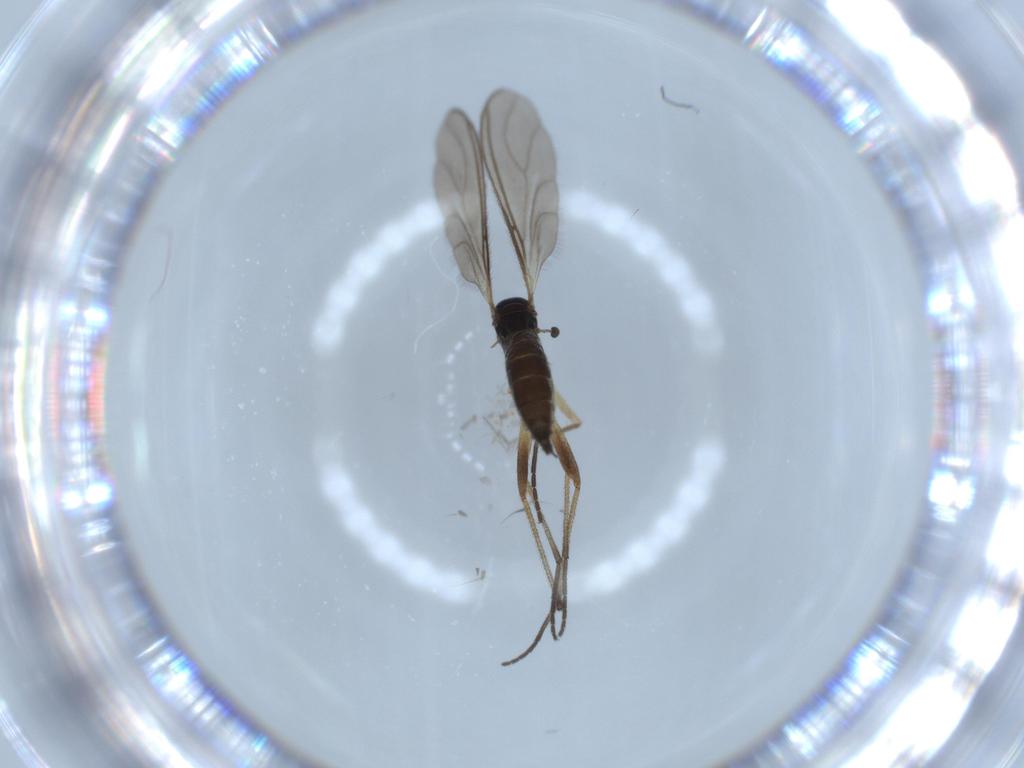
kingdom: Animalia
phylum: Arthropoda
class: Insecta
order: Diptera
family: Sciaridae
